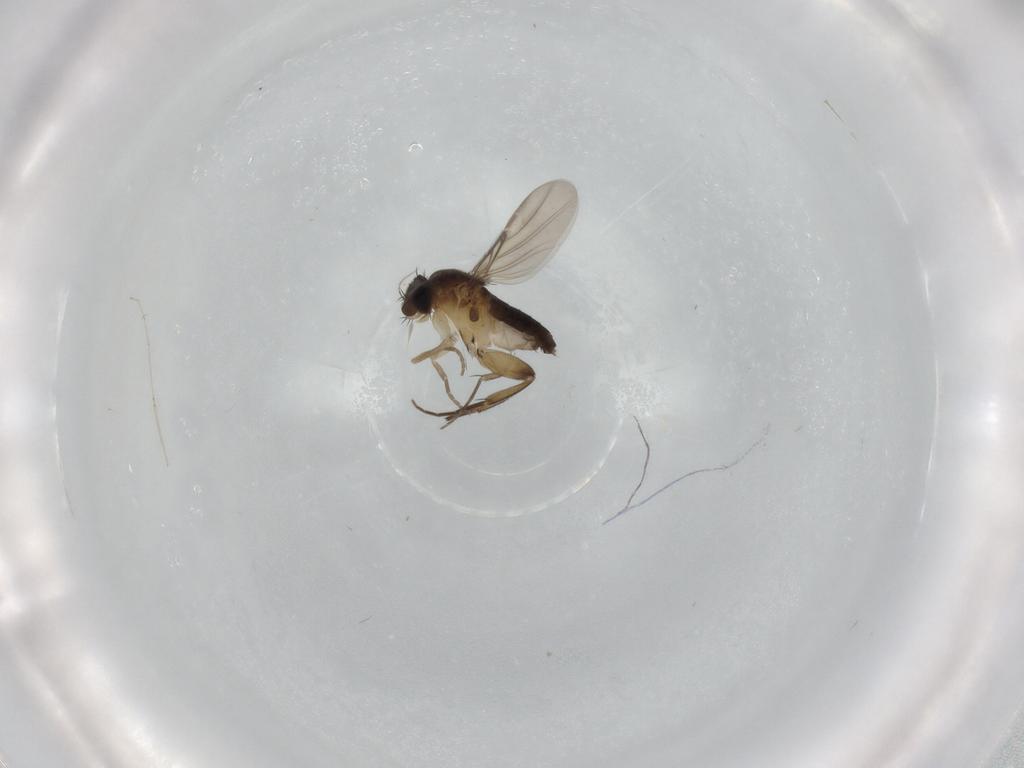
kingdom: Animalia
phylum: Arthropoda
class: Insecta
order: Diptera
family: Phoridae
